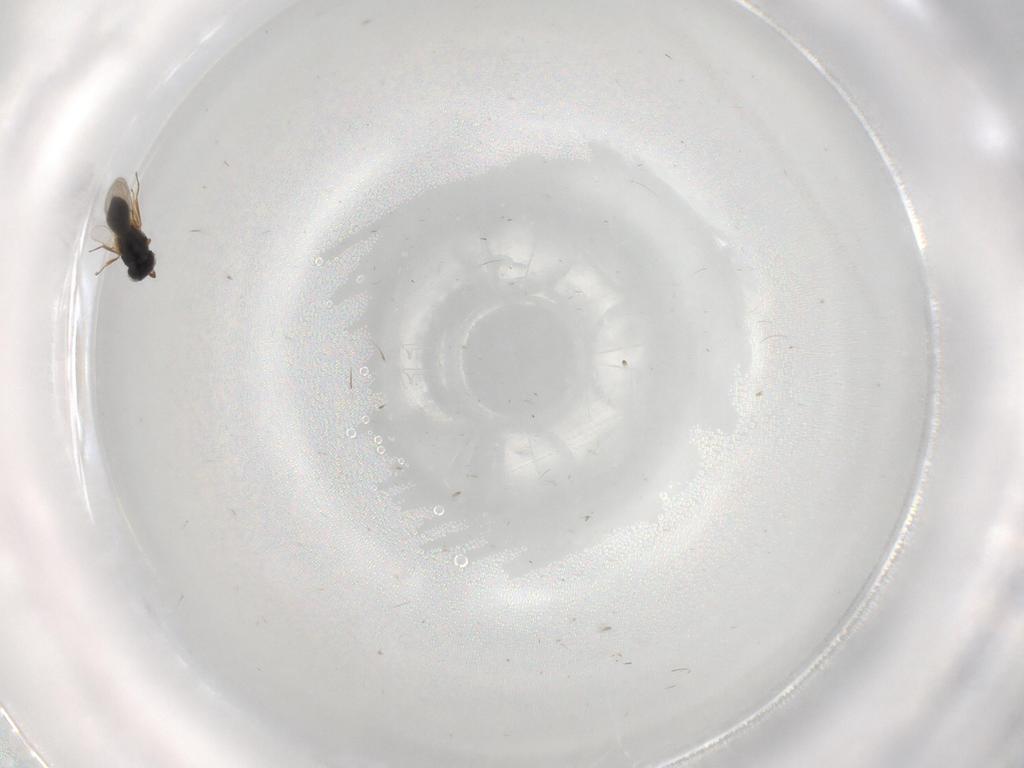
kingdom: Animalia
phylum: Arthropoda
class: Insecta
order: Hymenoptera
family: Scelionidae
